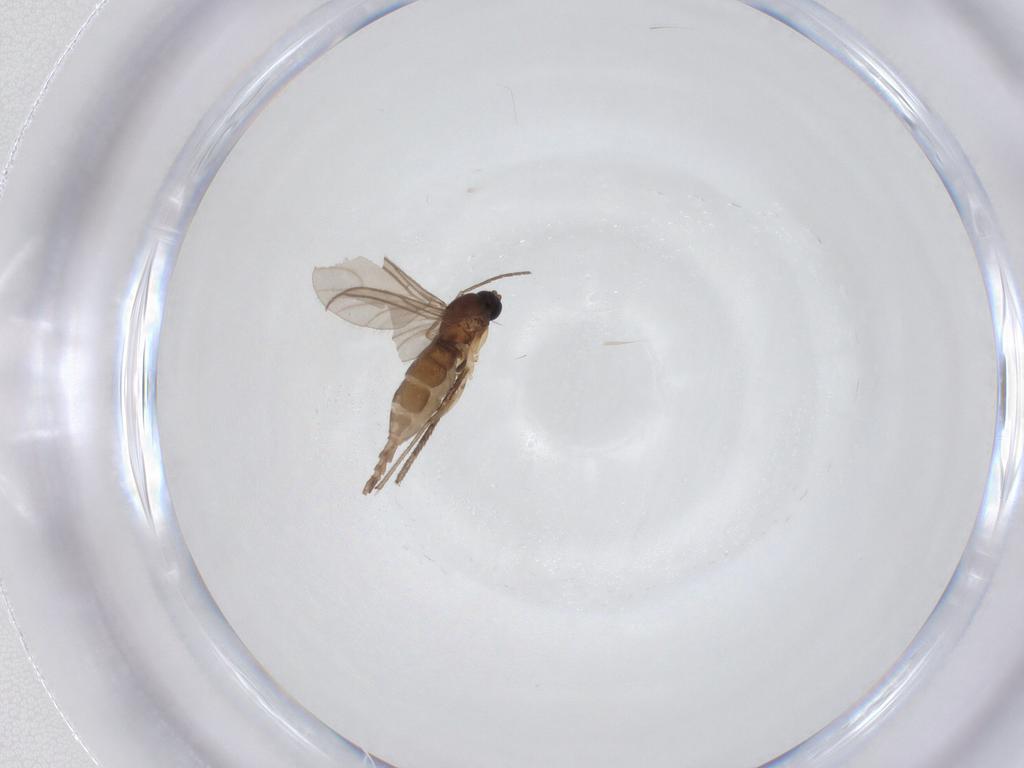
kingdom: Animalia
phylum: Arthropoda
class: Insecta
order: Diptera
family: Sciaridae
